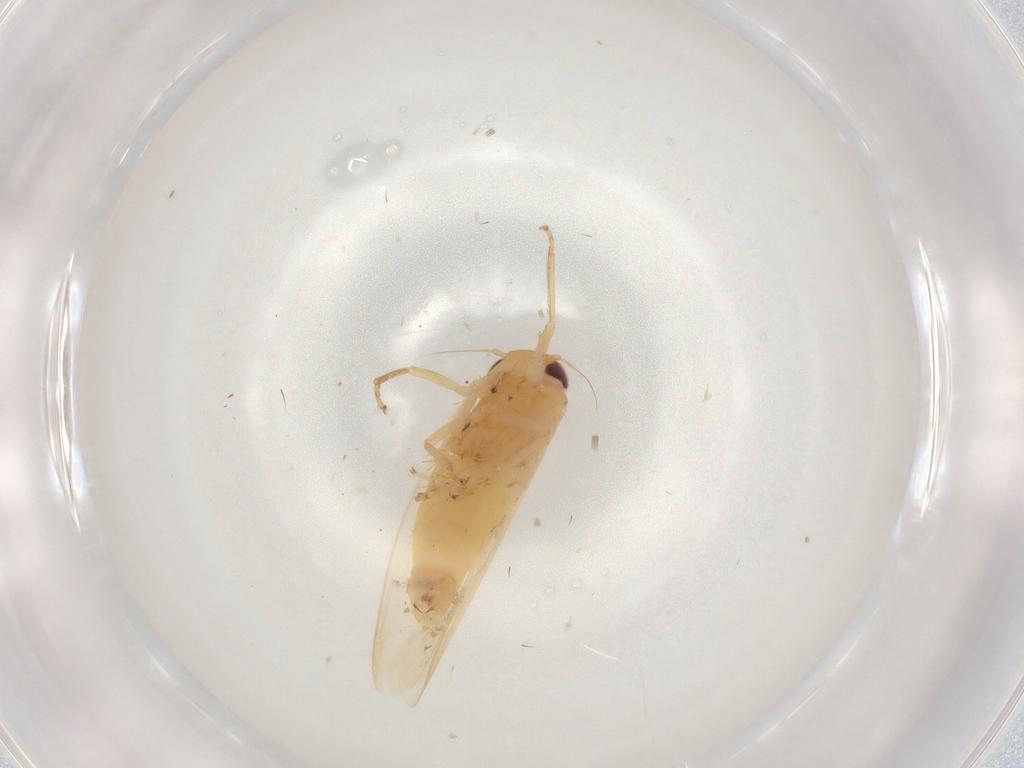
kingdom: Animalia
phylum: Arthropoda
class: Insecta
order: Hemiptera
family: Cicadellidae
